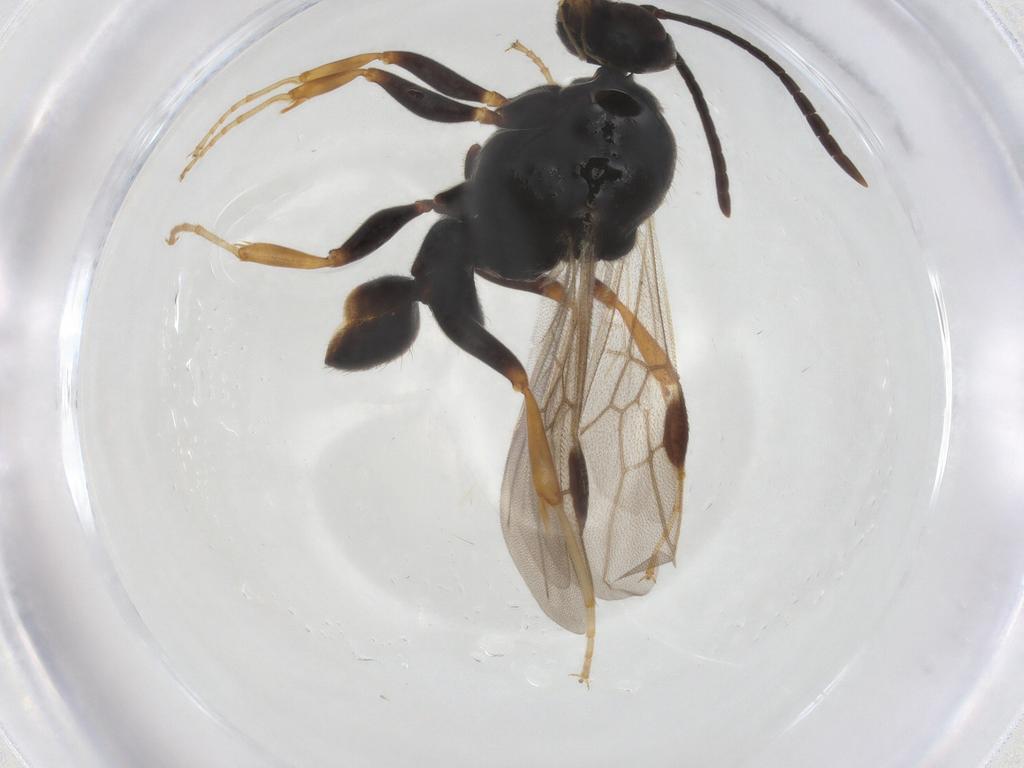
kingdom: Animalia
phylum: Arthropoda
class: Insecta
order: Hymenoptera
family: Formicidae
